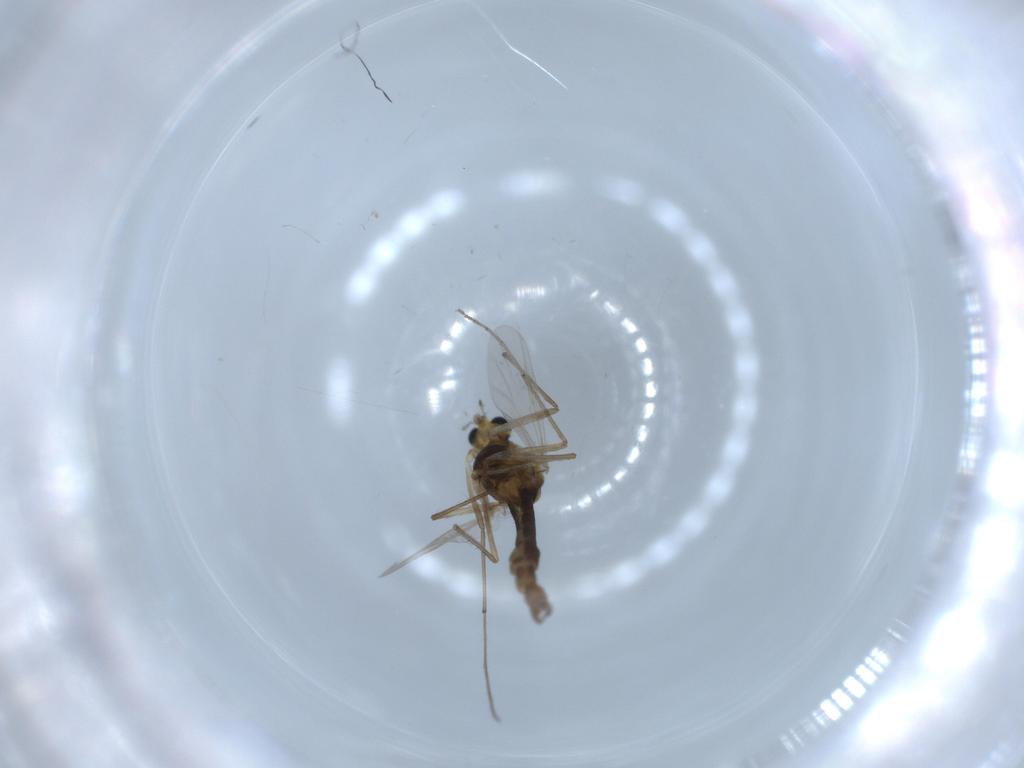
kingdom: Animalia
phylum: Arthropoda
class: Insecta
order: Diptera
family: Chironomidae
